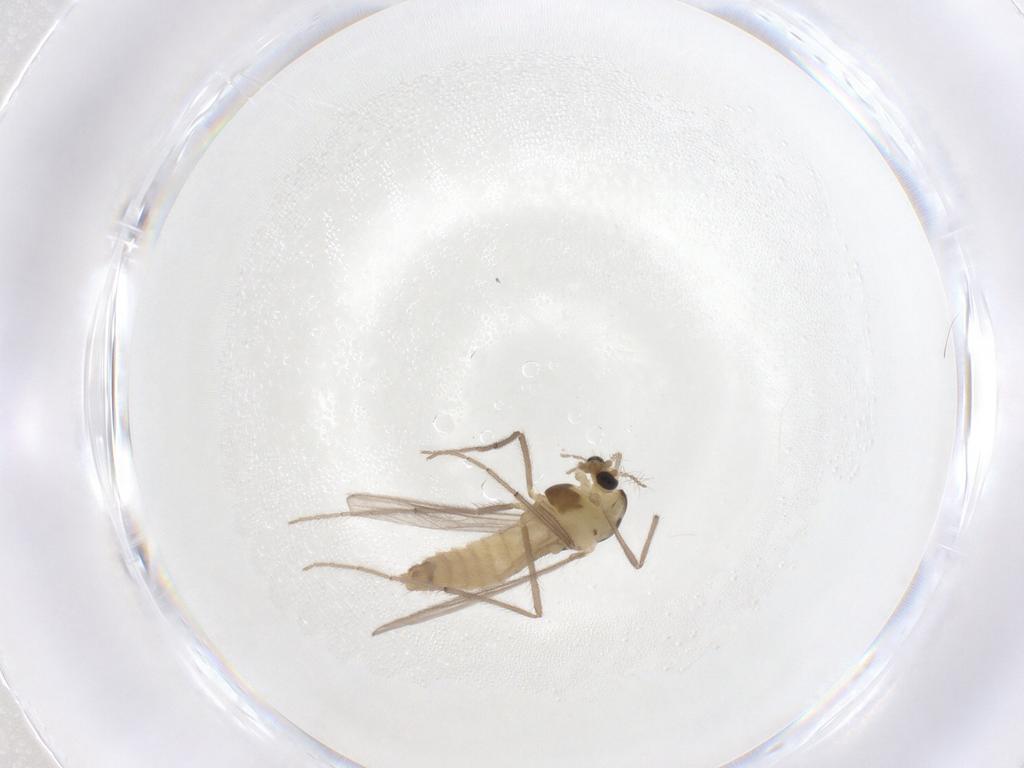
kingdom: Animalia
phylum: Arthropoda
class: Insecta
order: Diptera
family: Chironomidae
